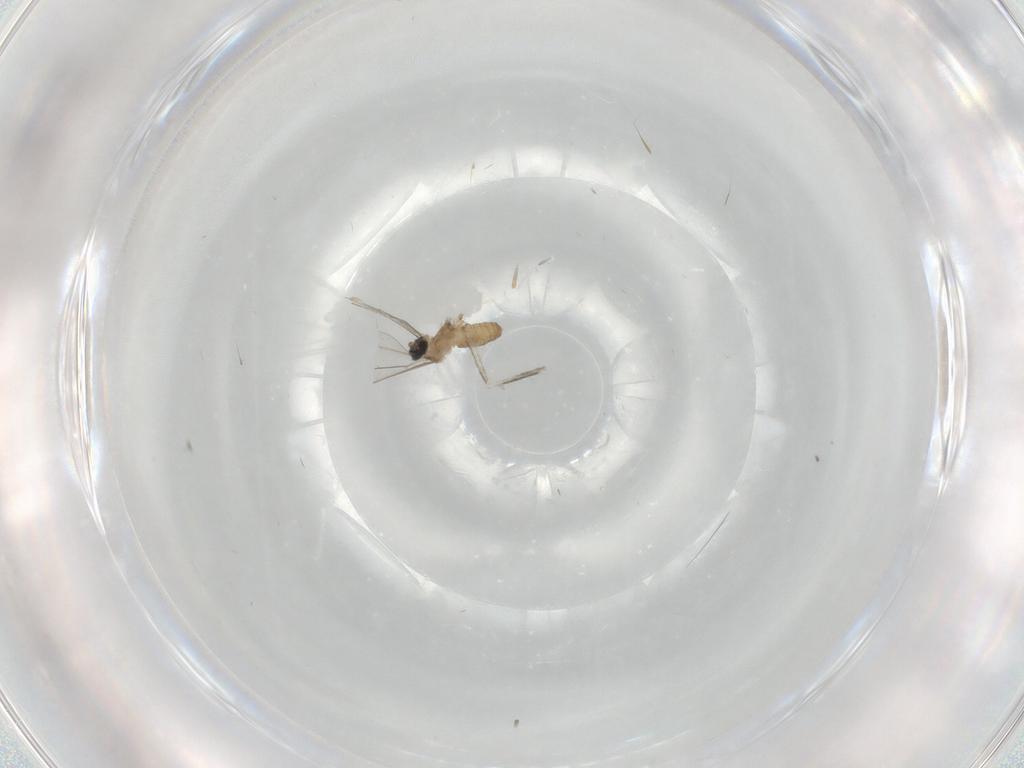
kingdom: Animalia
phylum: Arthropoda
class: Insecta
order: Diptera
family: Cecidomyiidae
